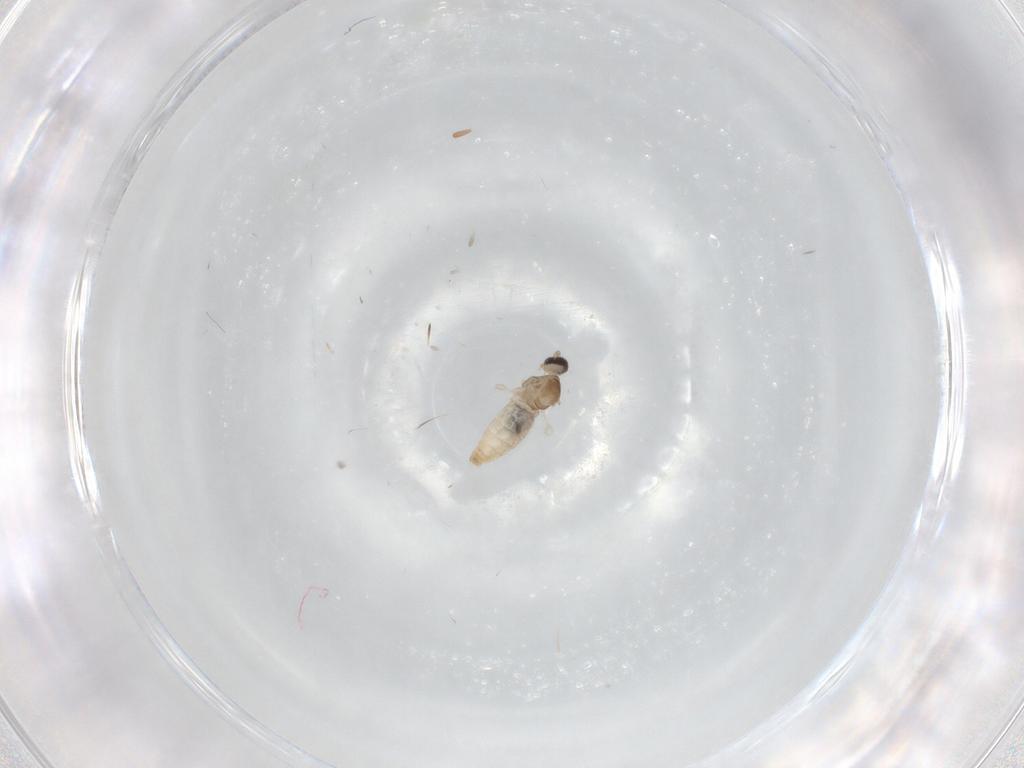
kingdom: Animalia
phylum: Arthropoda
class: Insecta
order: Diptera
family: Cecidomyiidae
